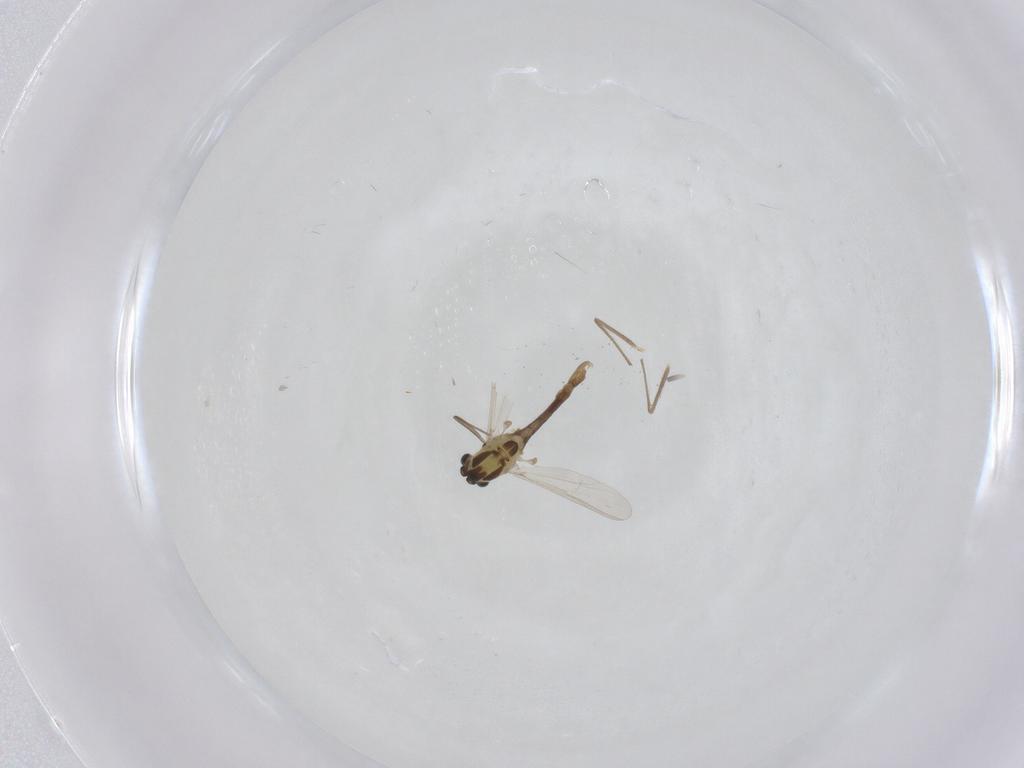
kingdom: Animalia
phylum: Arthropoda
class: Insecta
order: Diptera
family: Chironomidae
